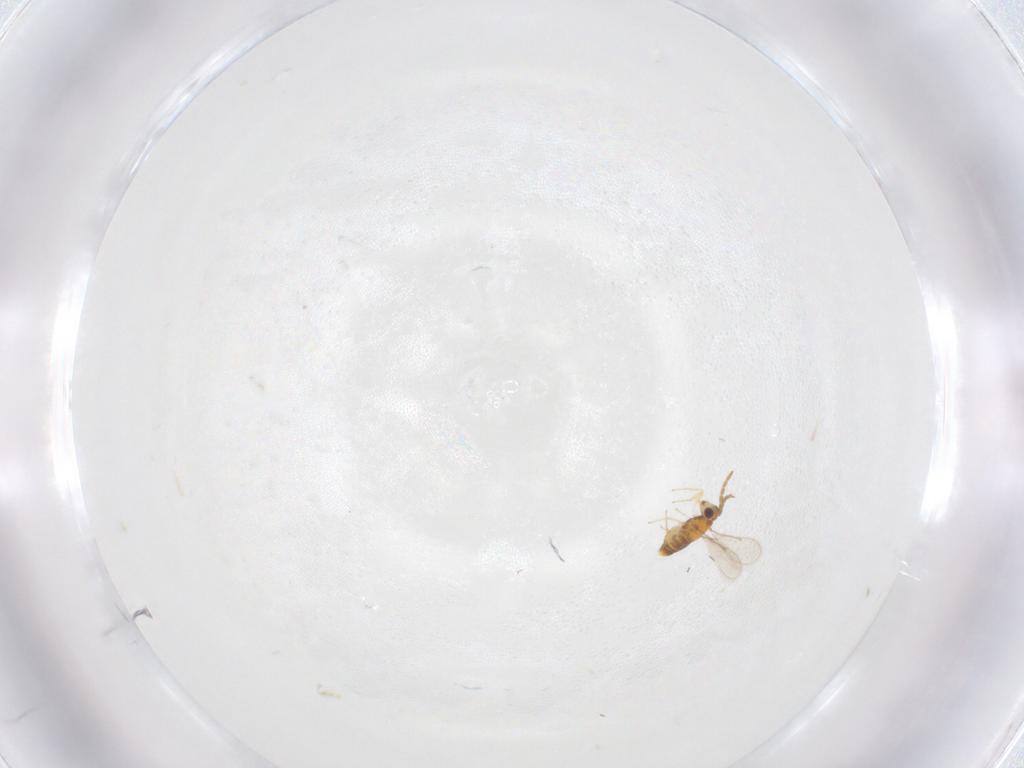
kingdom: Animalia
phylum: Arthropoda
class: Insecta
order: Hymenoptera
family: Aphelinidae
